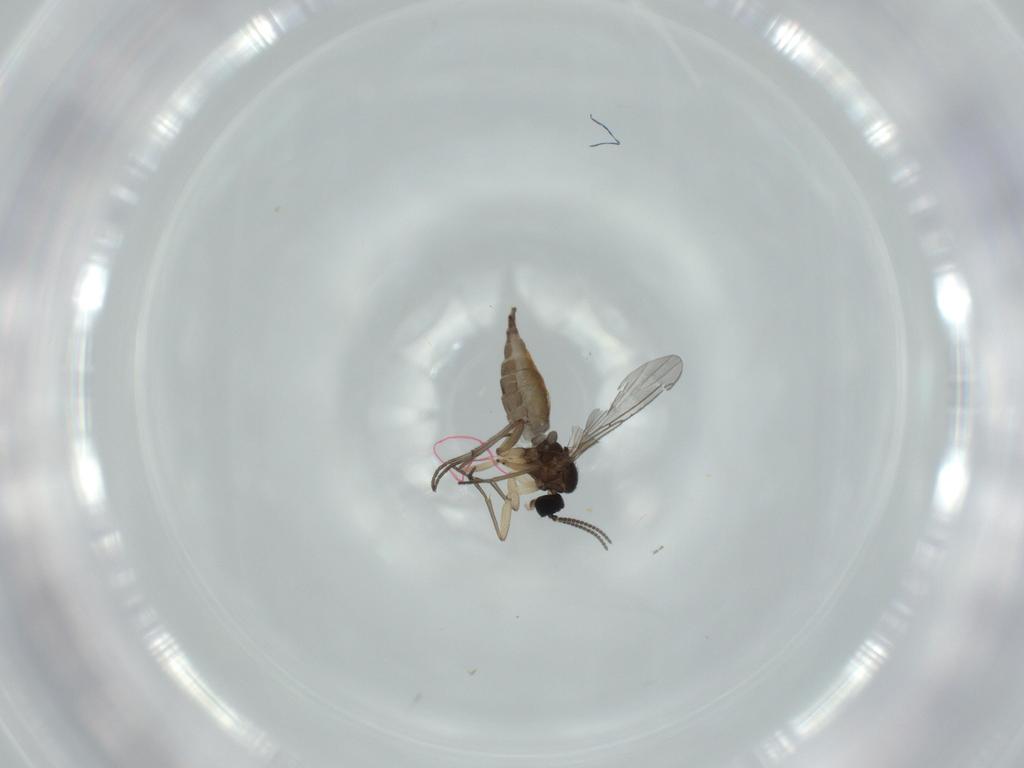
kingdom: Animalia
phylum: Arthropoda
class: Insecta
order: Diptera
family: Sciaridae
